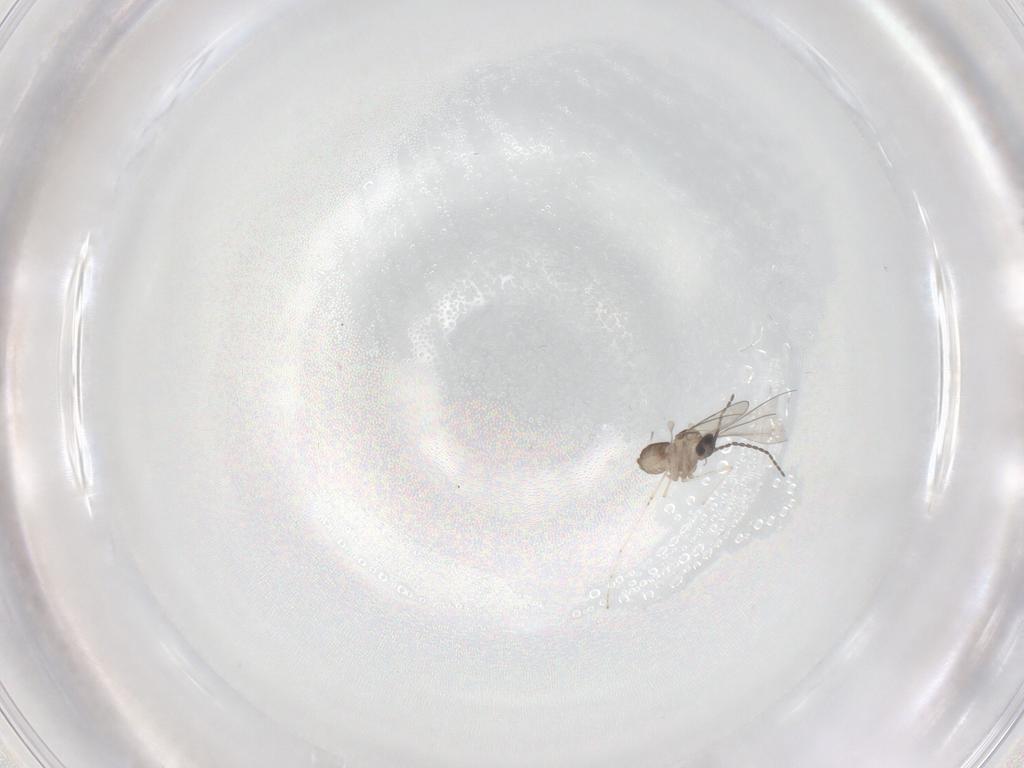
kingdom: Animalia
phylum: Arthropoda
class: Insecta
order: Diptera
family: Cecidomyiidae
